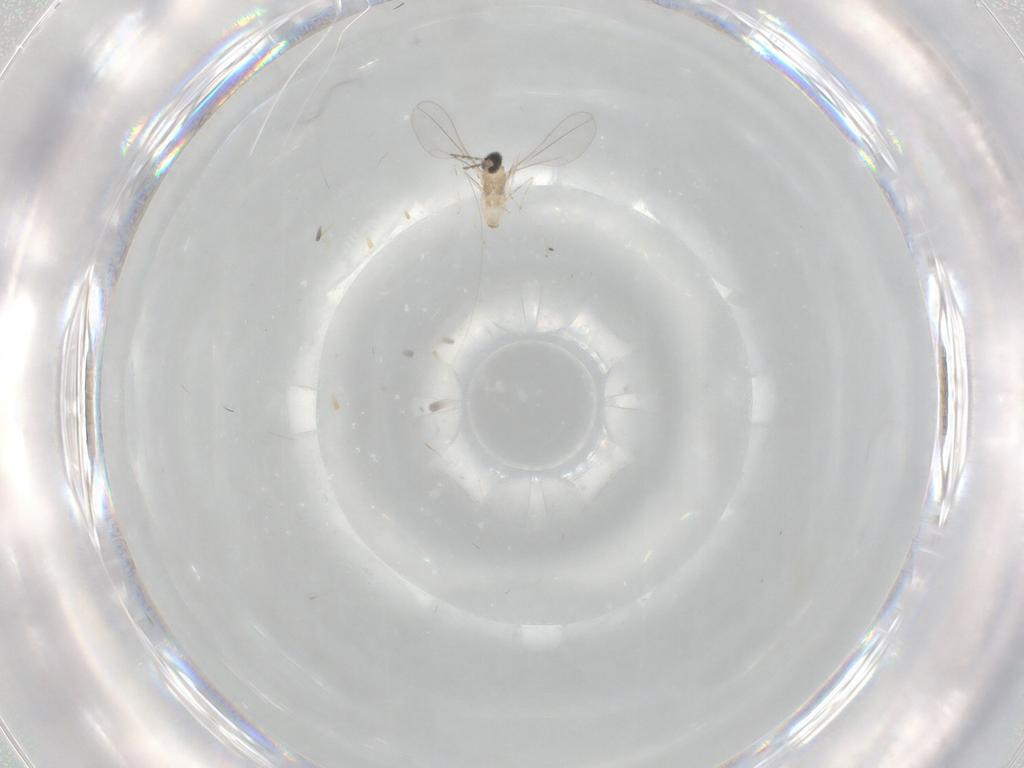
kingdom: Animalia
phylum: Arthropoda
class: Insecta
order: Diptera
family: Cecidomyiidae
